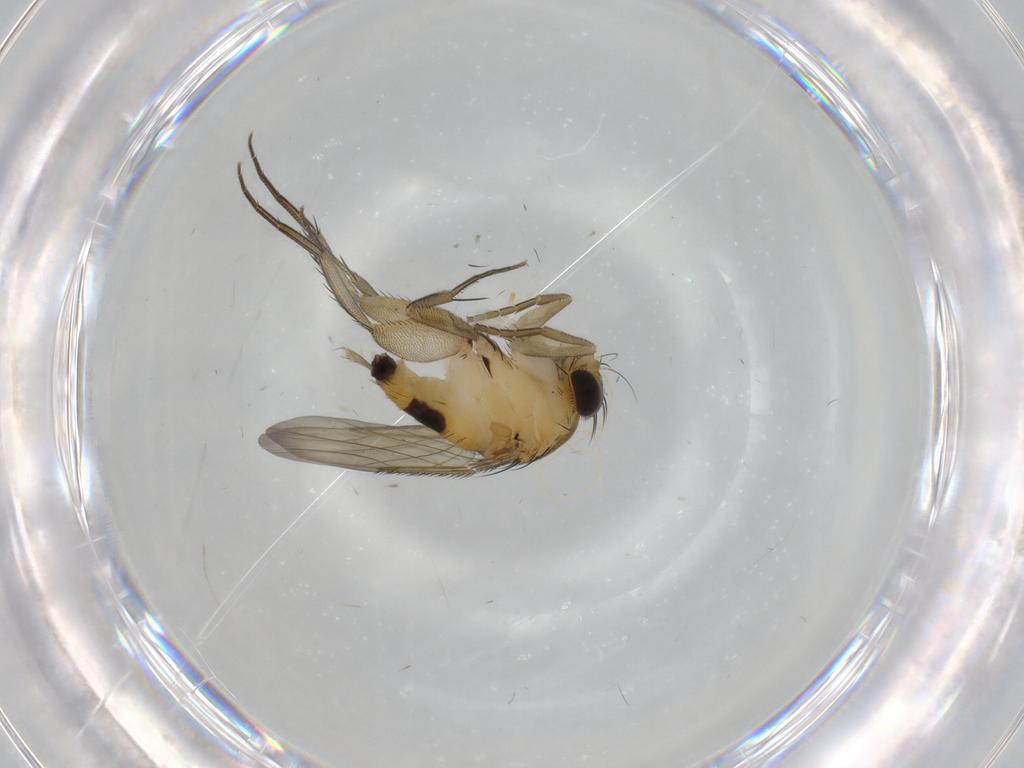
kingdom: Animalia
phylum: Arthropoda
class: Insecta
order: Diptera
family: Phoridae
